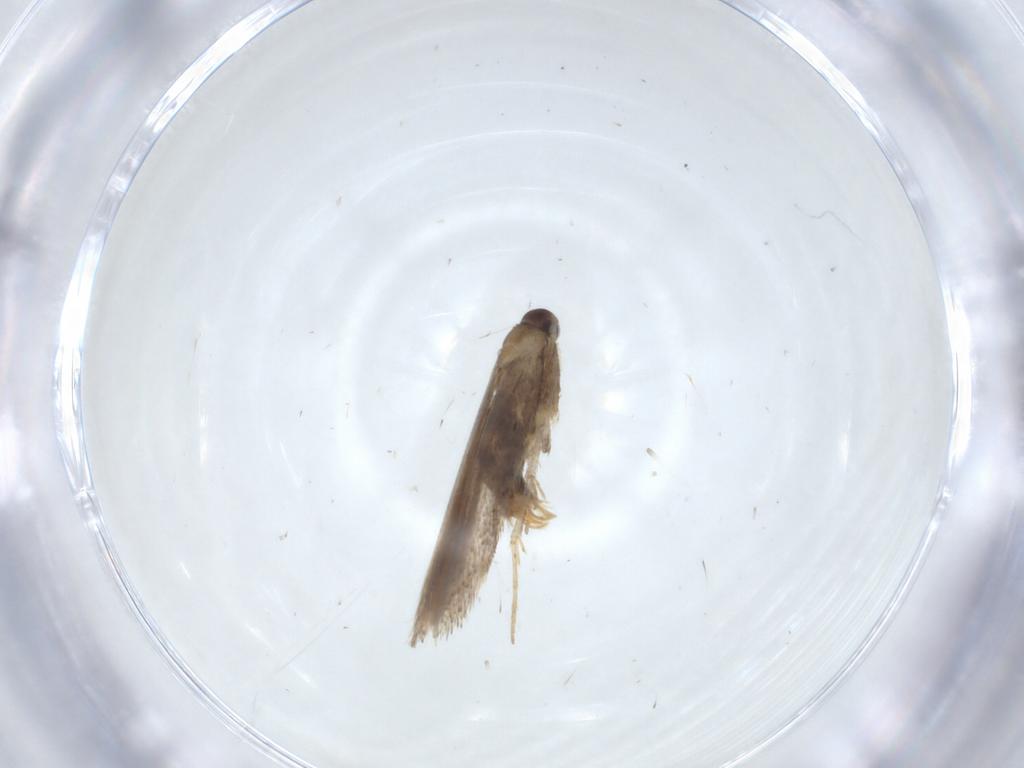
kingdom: Animalia
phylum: Arthropoda
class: Insecta
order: Lepidoptera
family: Cosmopterigidae
